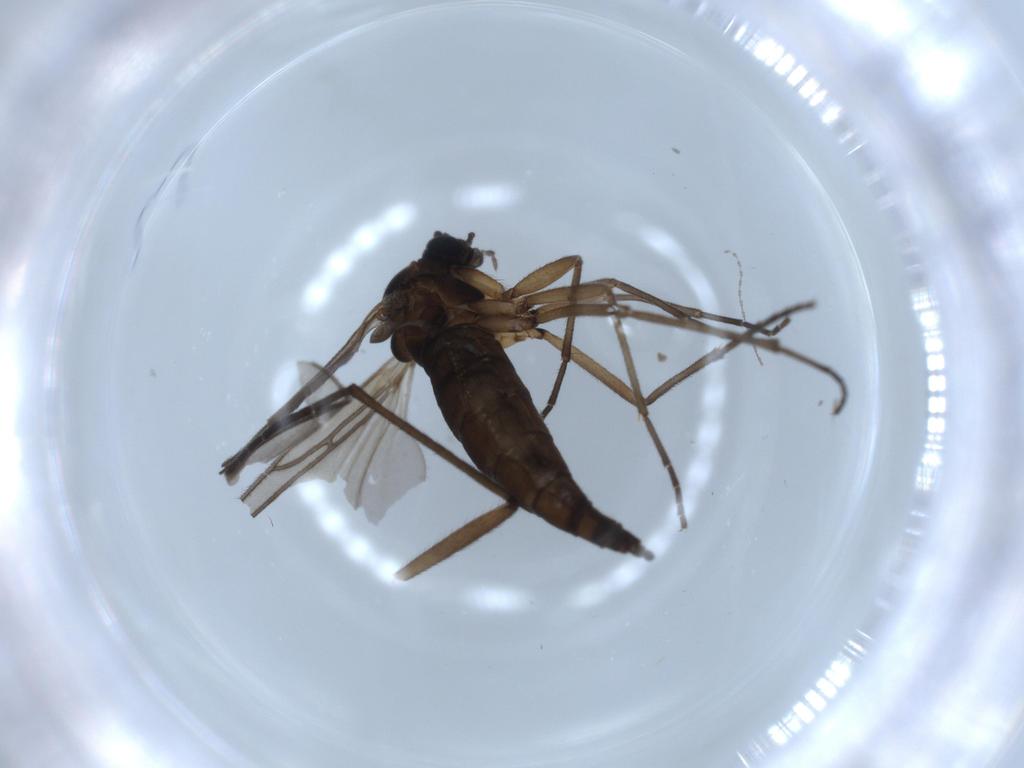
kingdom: Animalia
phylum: Arthropoda
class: Insecta
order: Diptera
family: Sciaridae
